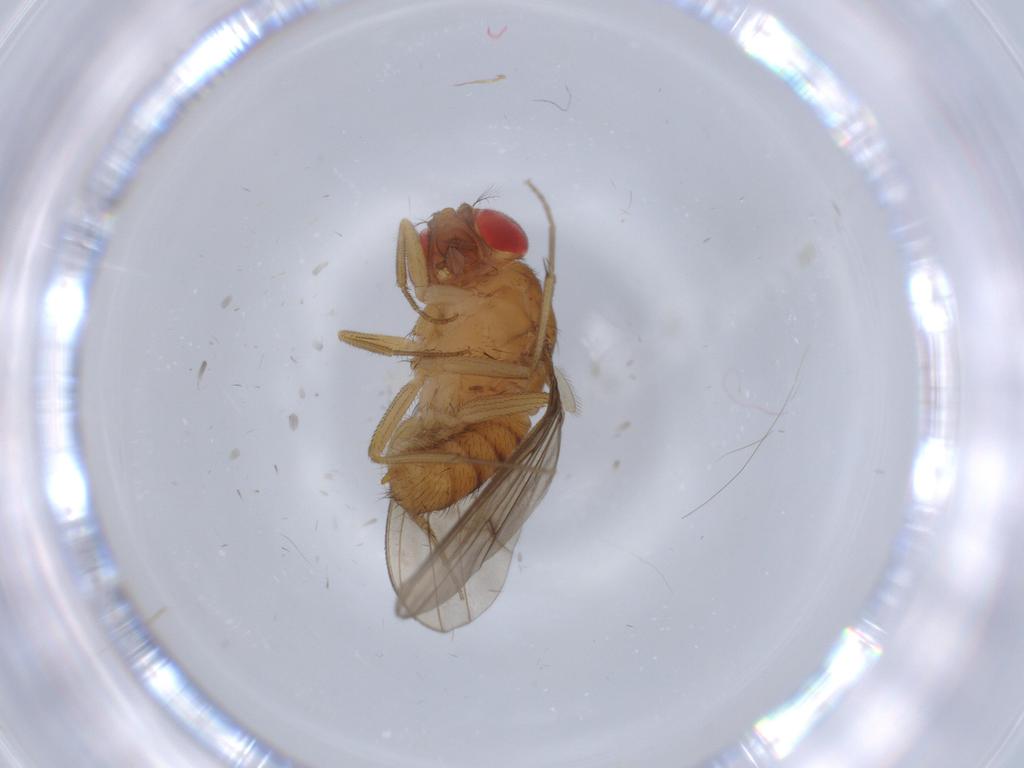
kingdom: Animalia
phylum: Arthropoda
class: Insecta
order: Diptera
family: Drosophilidae
